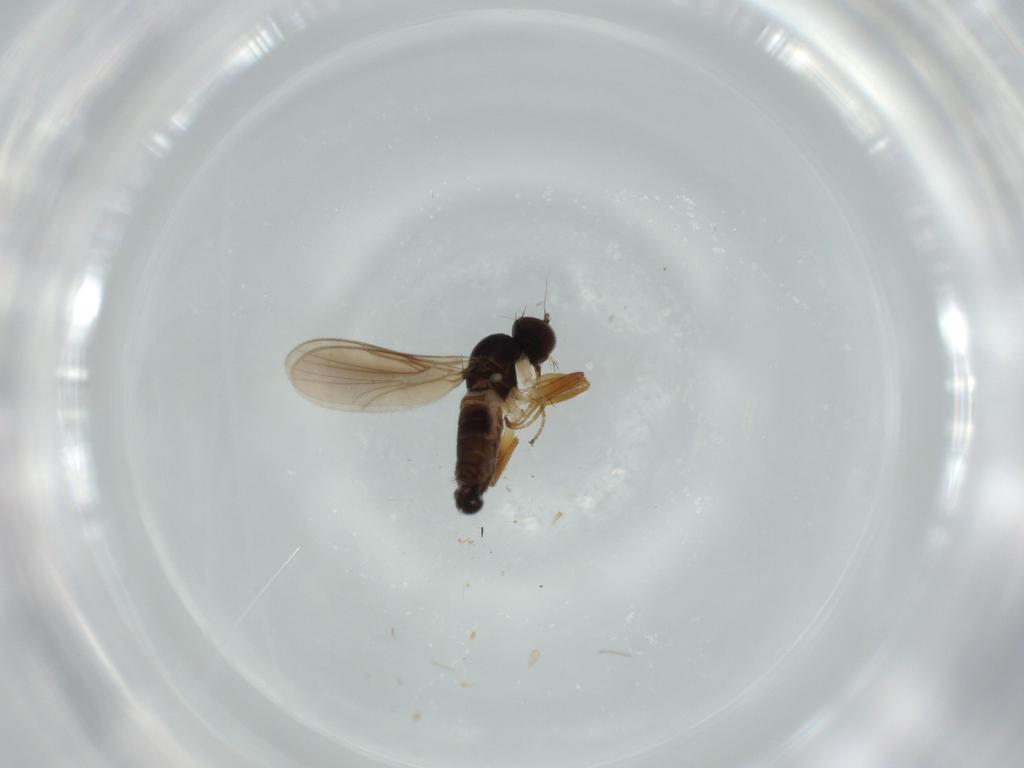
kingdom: Animalia
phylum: Arthropoda
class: Insecta
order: Diptera
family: Hybotidae
